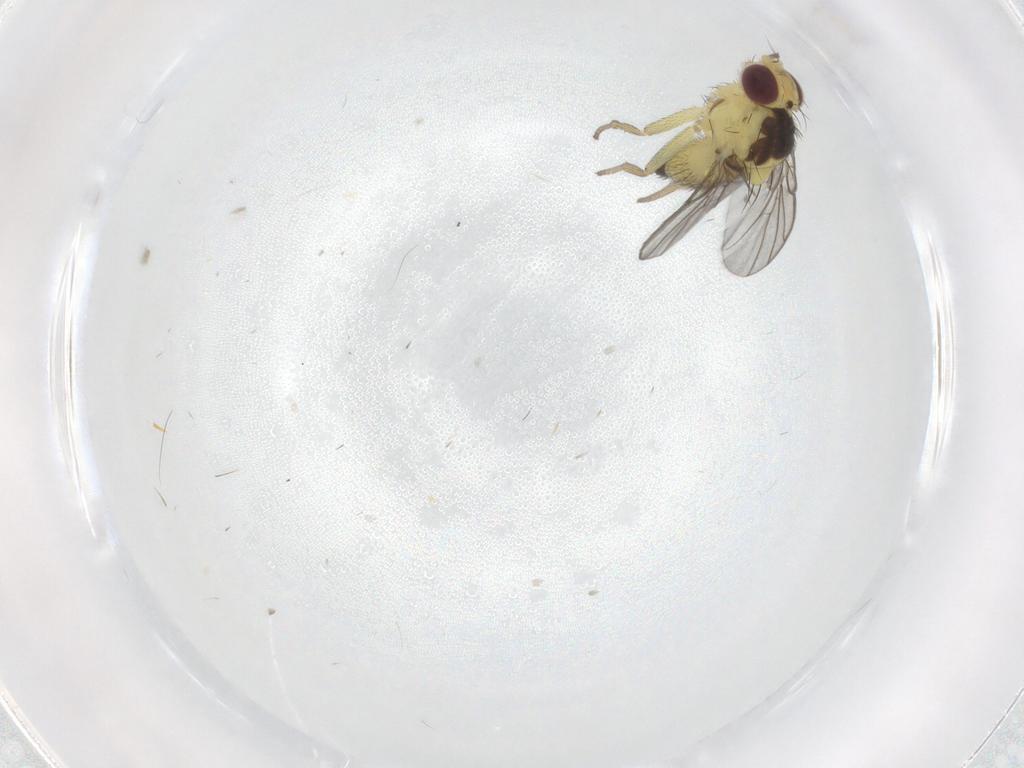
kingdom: Animalia
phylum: Arthropoda
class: Insecta
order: Diptera
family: Agromyzidae
